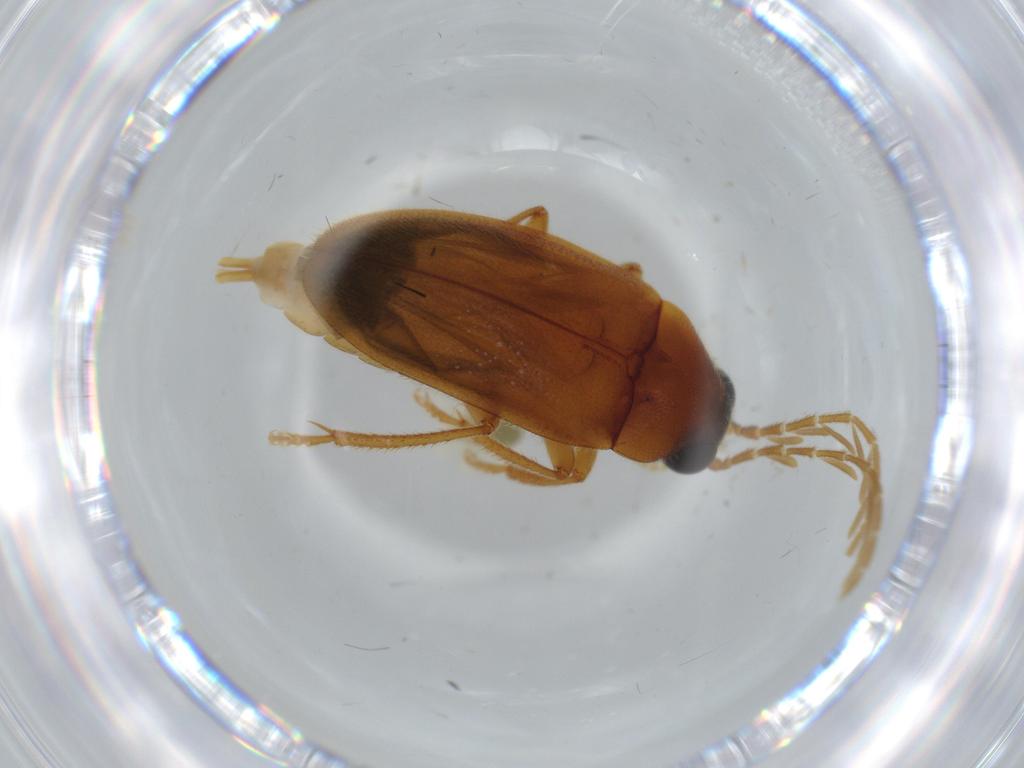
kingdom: Animalia
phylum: Arthropoda
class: Insecta
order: Coleoptera
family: Ptilodactylidae
